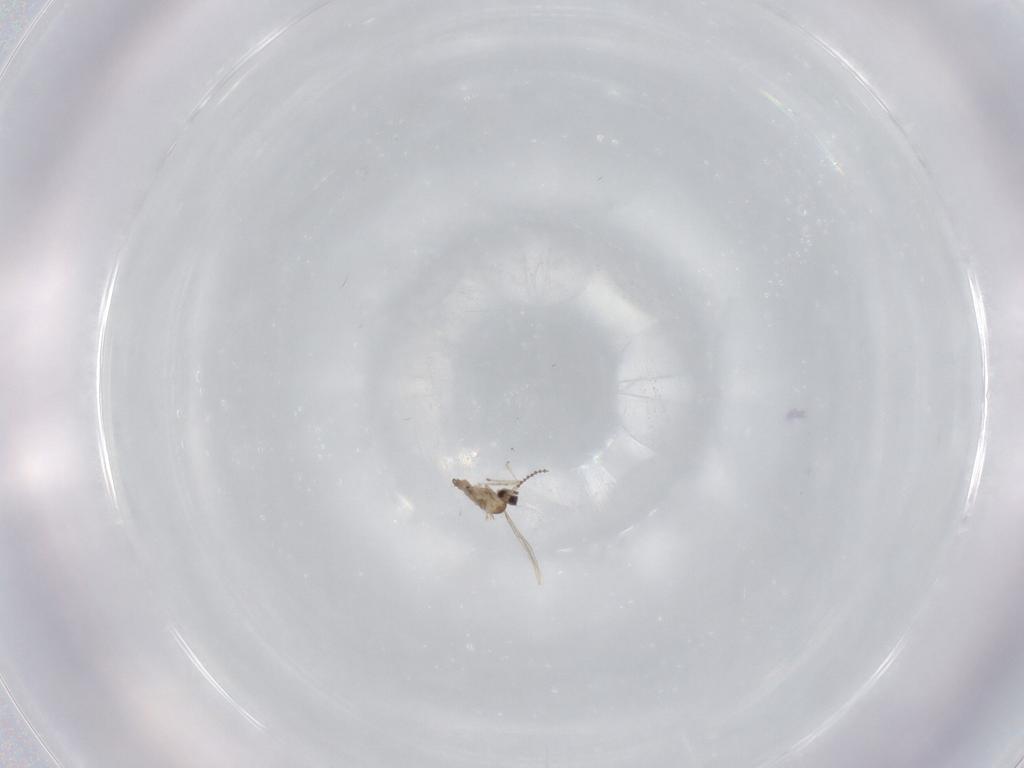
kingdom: Animalia
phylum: Arthropoda
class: Insecta
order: Diptera
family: Cecidomyiidae
